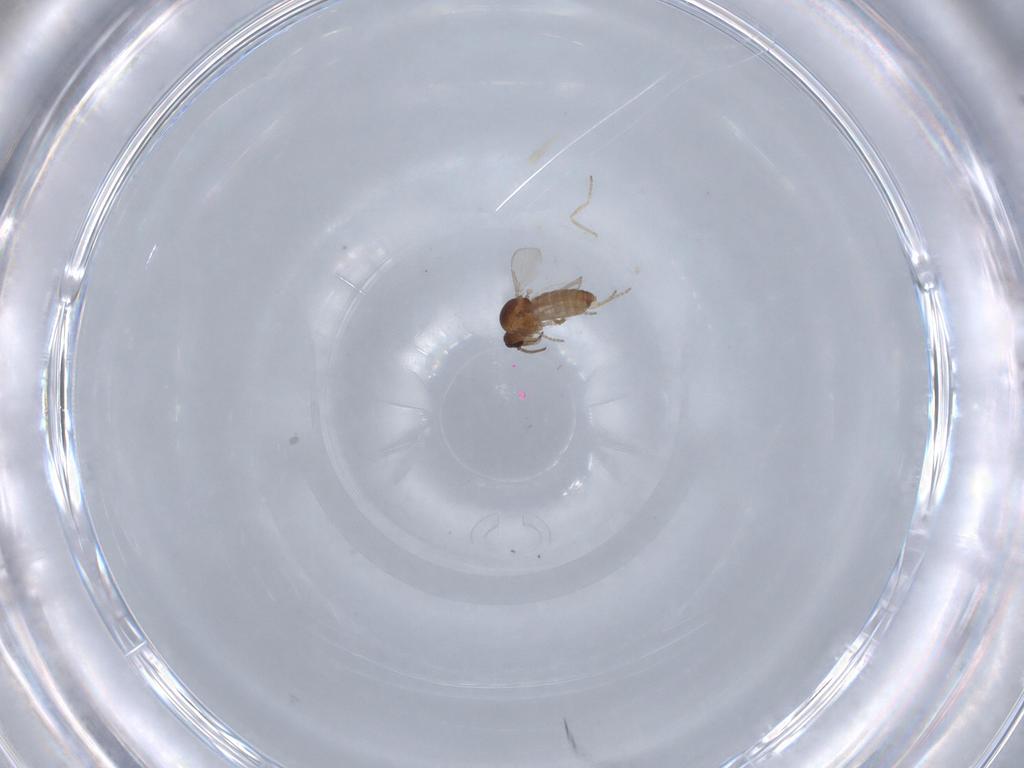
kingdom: Animalia
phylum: Arthropoda
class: Insecta
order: Diptera
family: Ceratopogonidae
